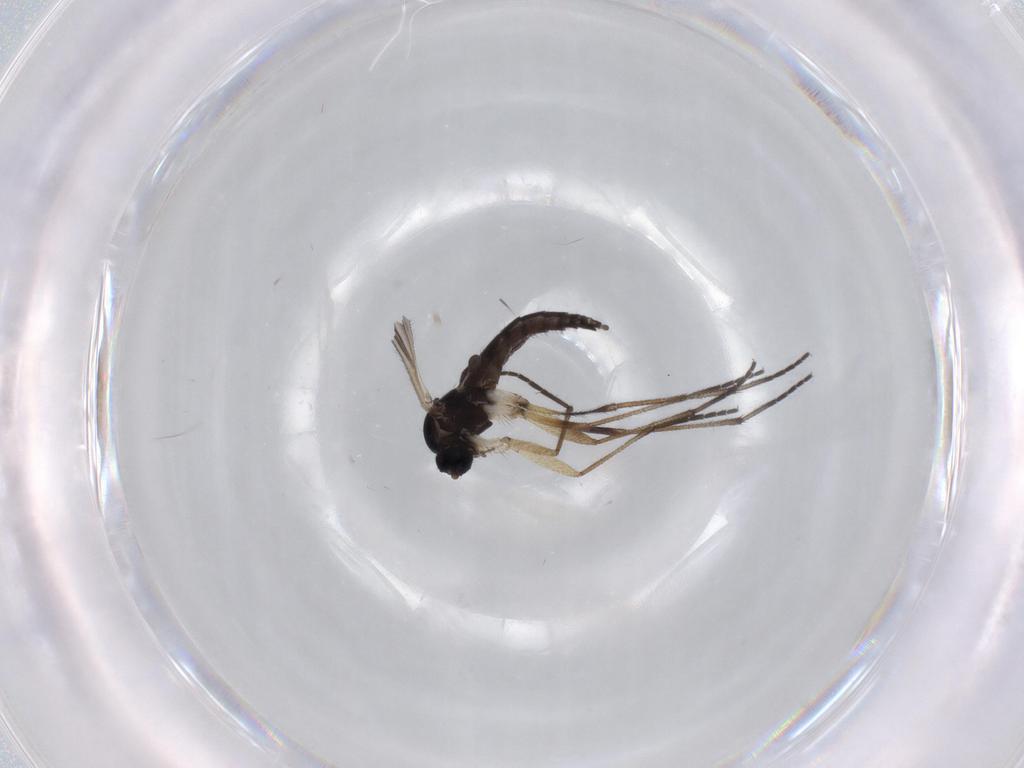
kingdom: Animalia
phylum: Arthropoda
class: Insecta
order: Diptera
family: Sciaridae
